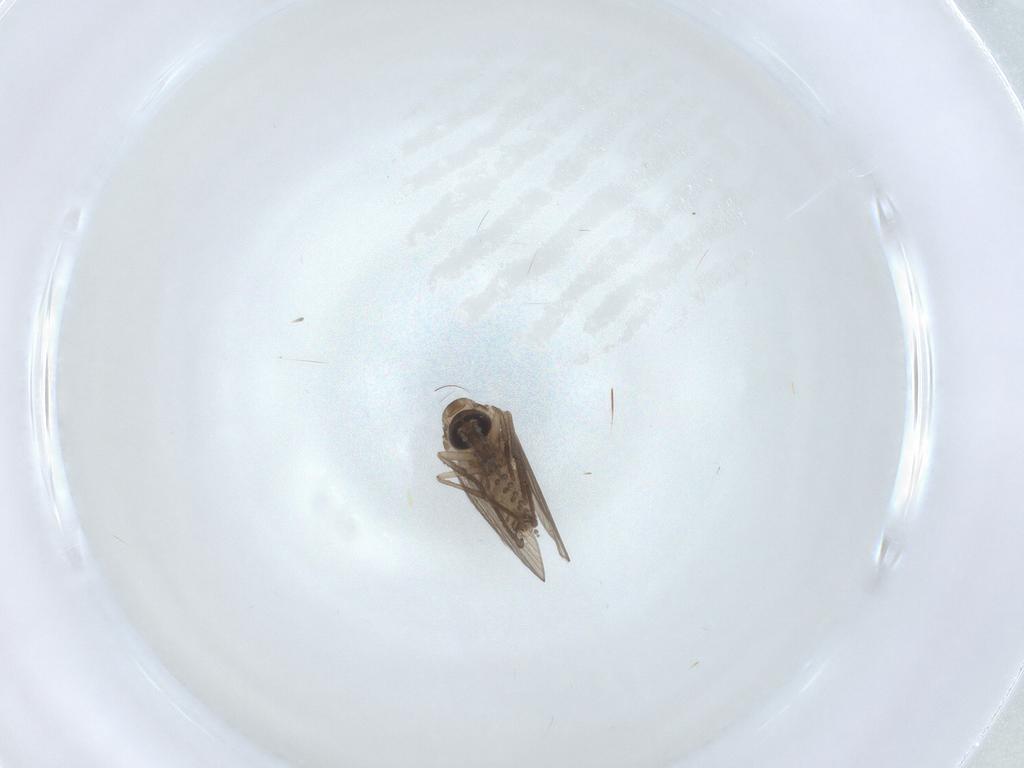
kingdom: Animalia
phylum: Arthropoda
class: Insecta
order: Diptera
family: Psychodidae
